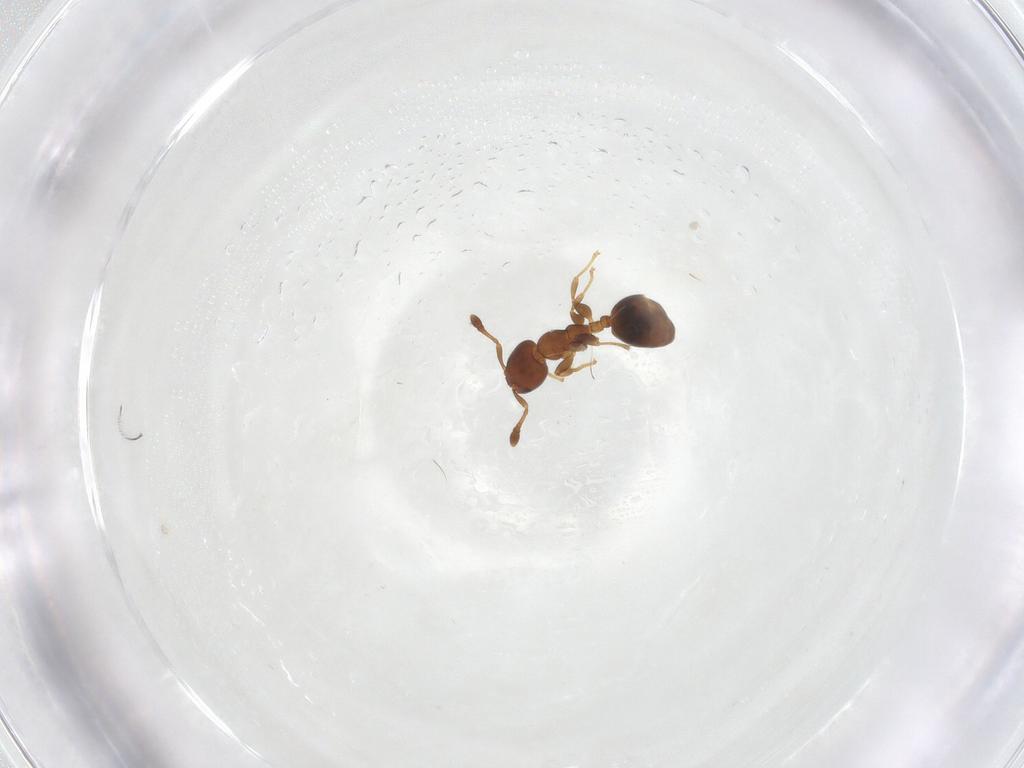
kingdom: Animalia
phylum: Arthropoda
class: Insecta
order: Hymenoptera
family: Formicidae
